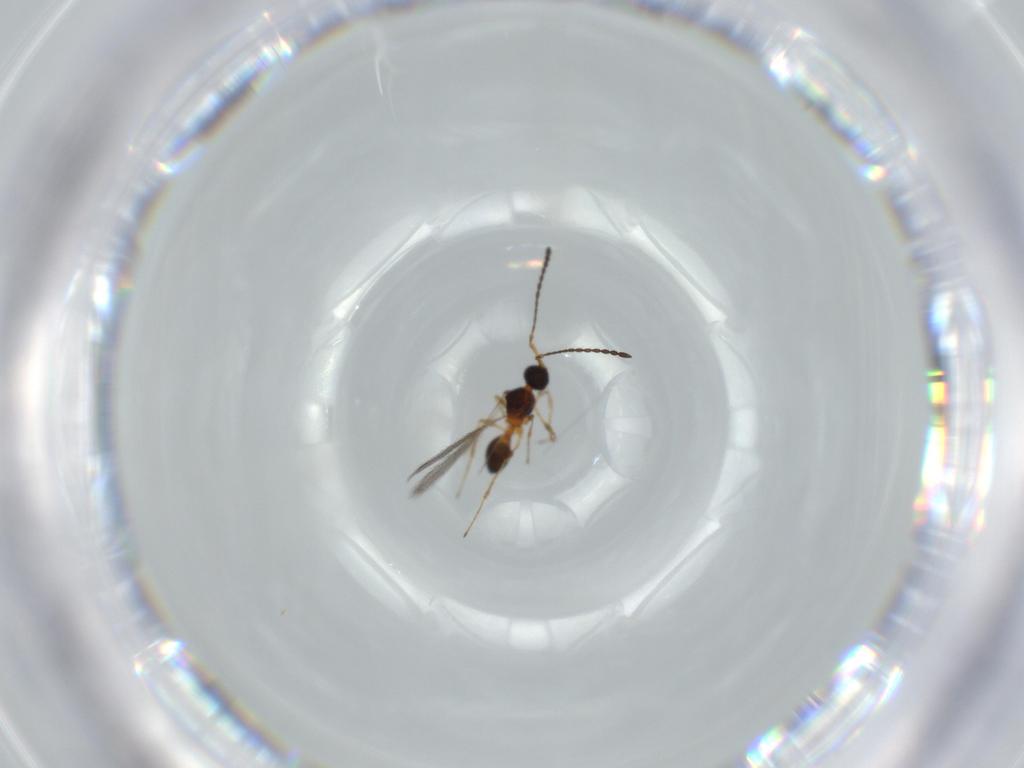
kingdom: Animalia
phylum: Arthropoda
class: Insecta
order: Hymenoptera
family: Diapriidae
